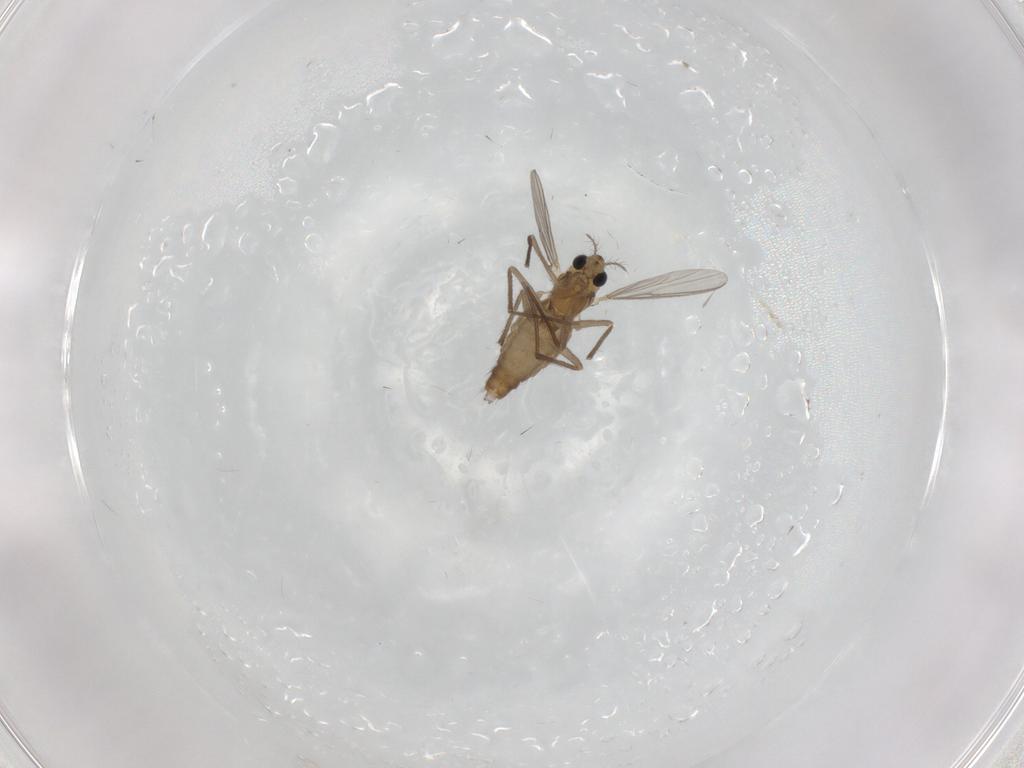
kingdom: Animalia
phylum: Arthropoda
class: Insecta
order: Diptera
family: Chironomidae
